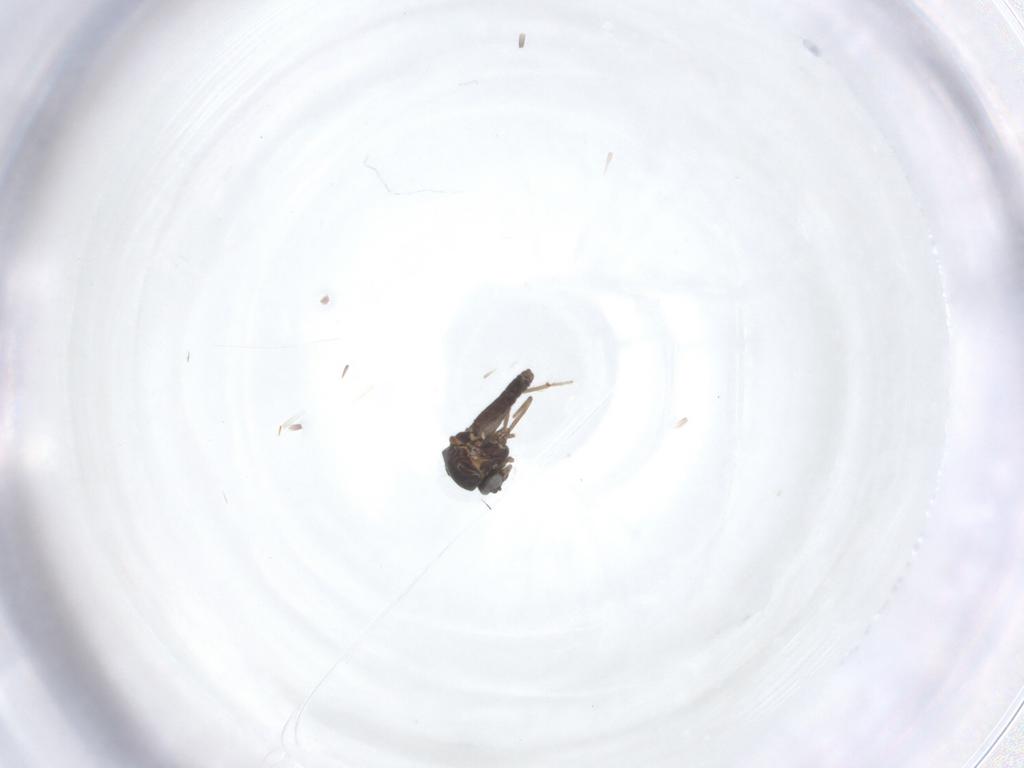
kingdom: Animalia
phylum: Arthropoda
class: Insecta
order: Diptera
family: Ceratopogonidae
